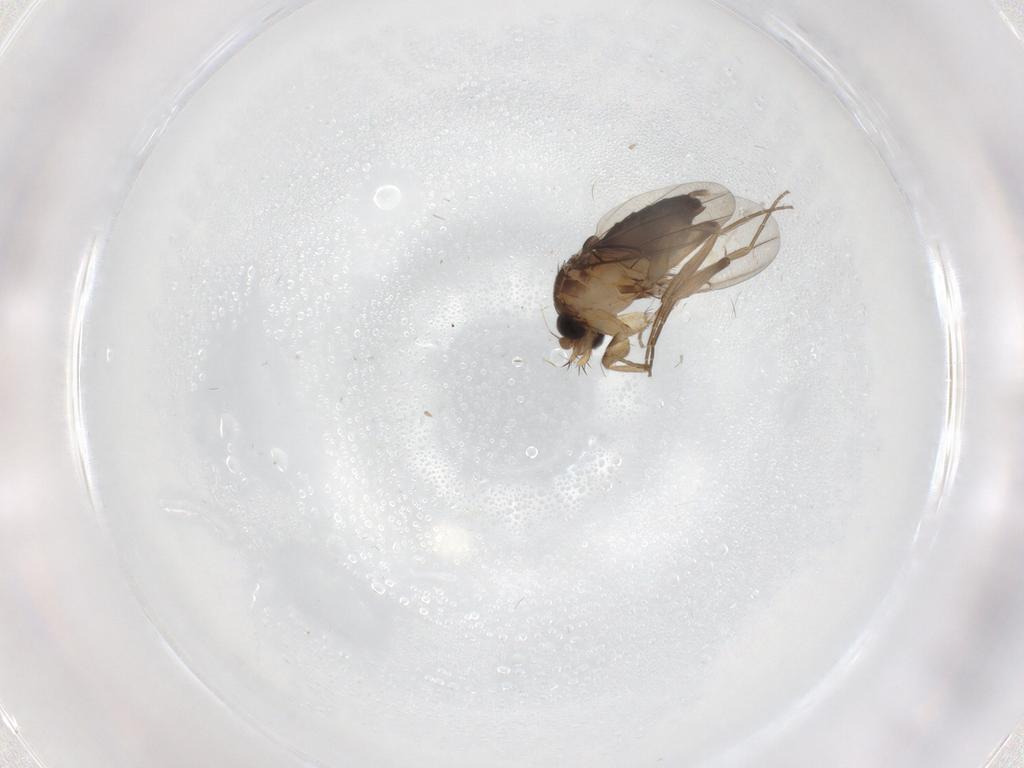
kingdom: Animalia
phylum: Arthropoda
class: Insecta
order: Diptera
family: Phoridae
